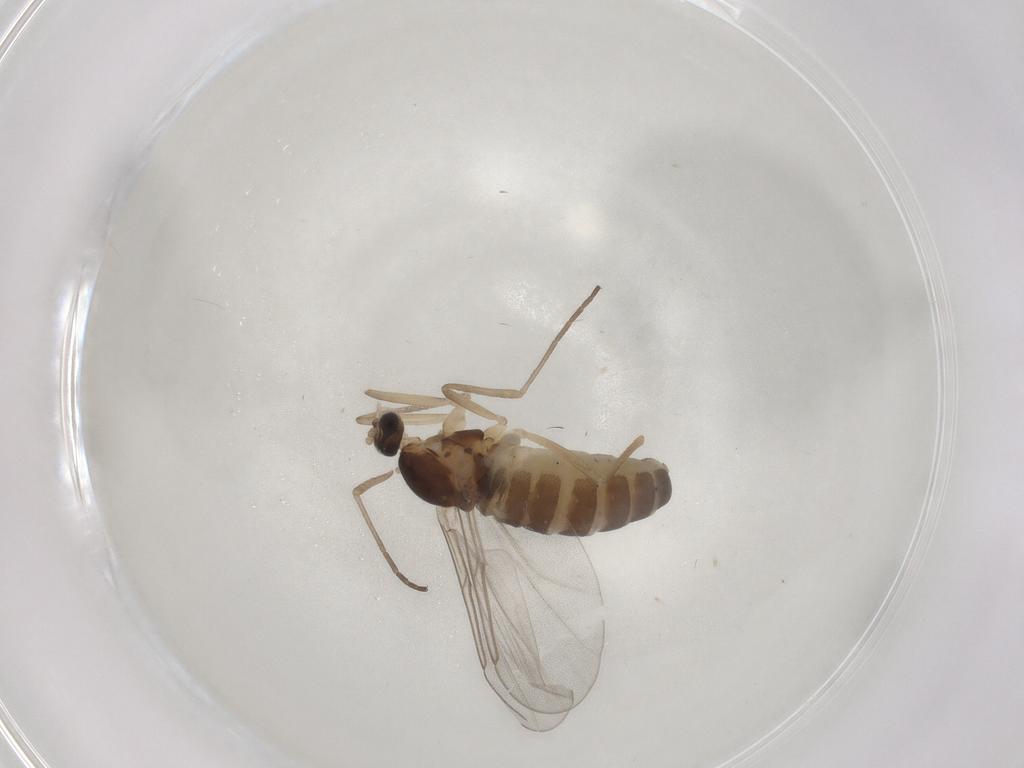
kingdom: Animalia
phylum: Arthropoda
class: Insecta
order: Diptera
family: Cecidomyiidae
